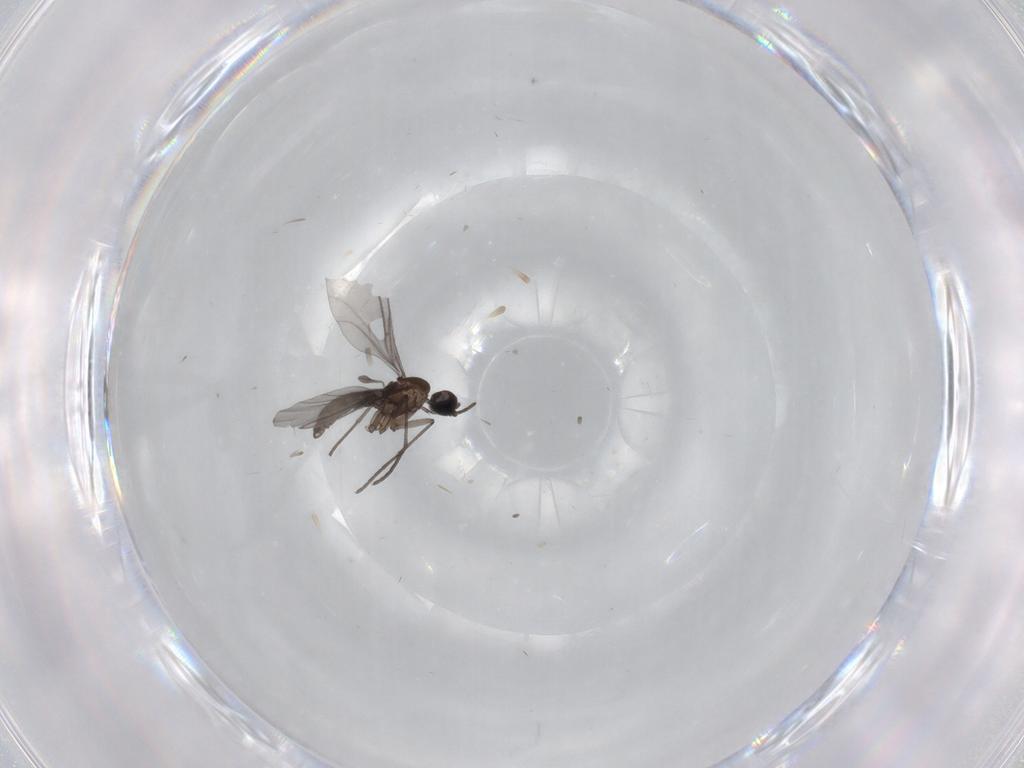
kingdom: Animalia
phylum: Arthropoda
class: Insecta
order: Diptera
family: Sciaridae
